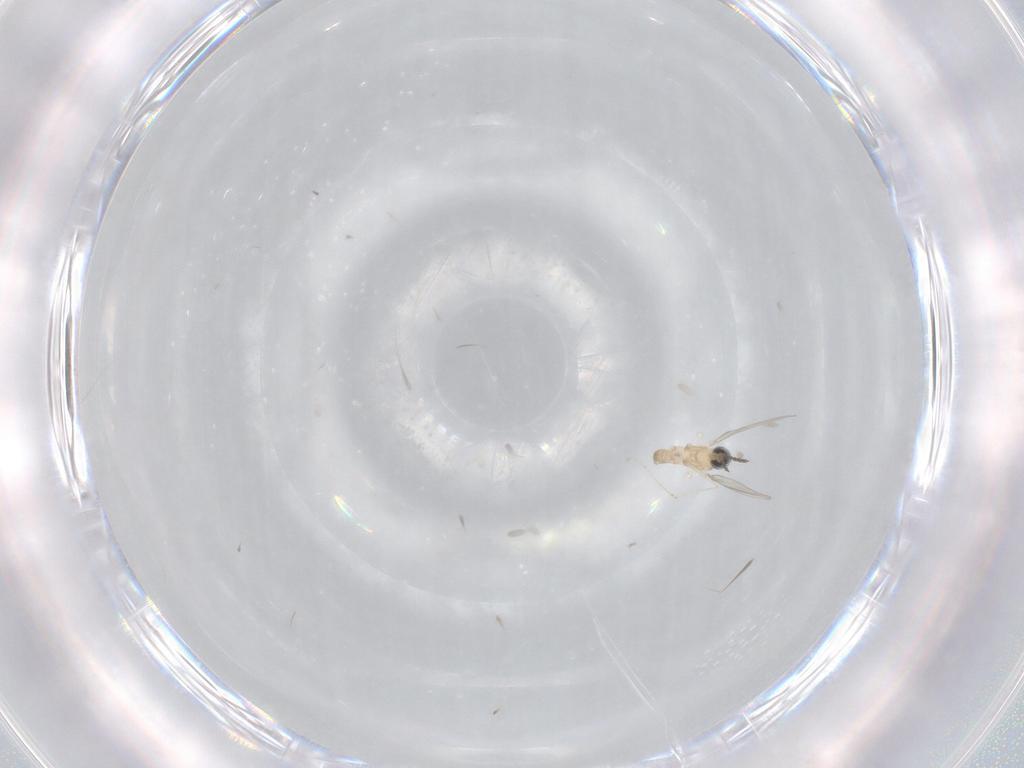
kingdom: Animalia
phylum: Arthropoda
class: Insecta
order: Diptera
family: Cecidomyiidae
